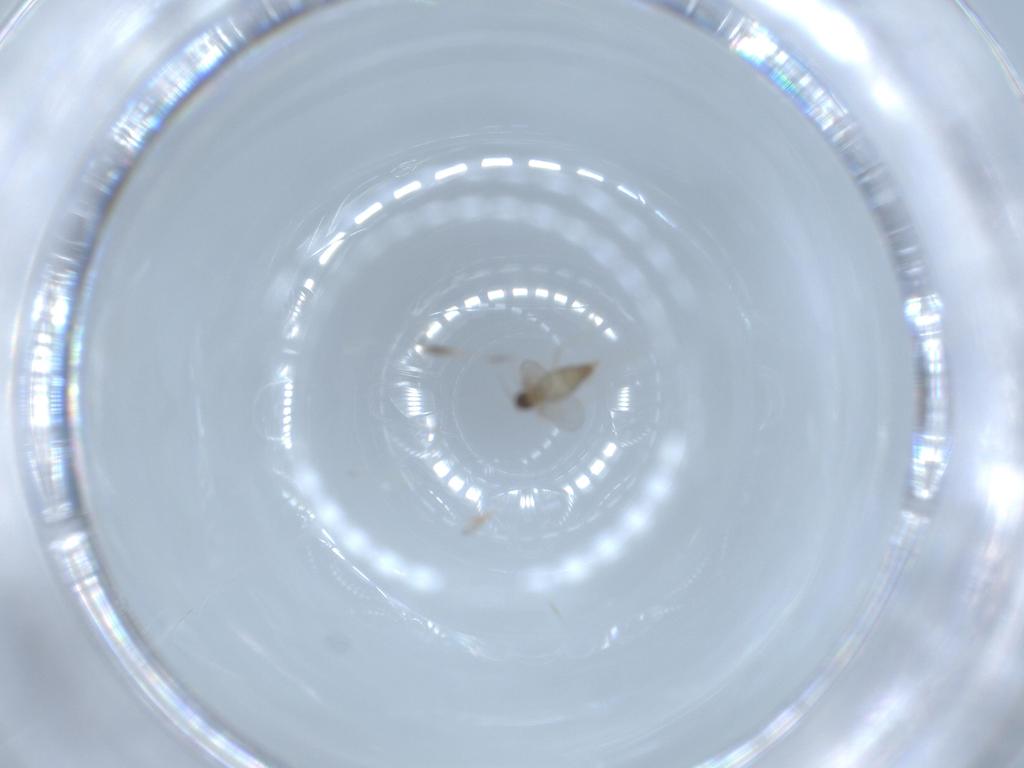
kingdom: Animalia
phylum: Arthropoda
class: Insecta
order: Diptera
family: Cecidomyiidae
